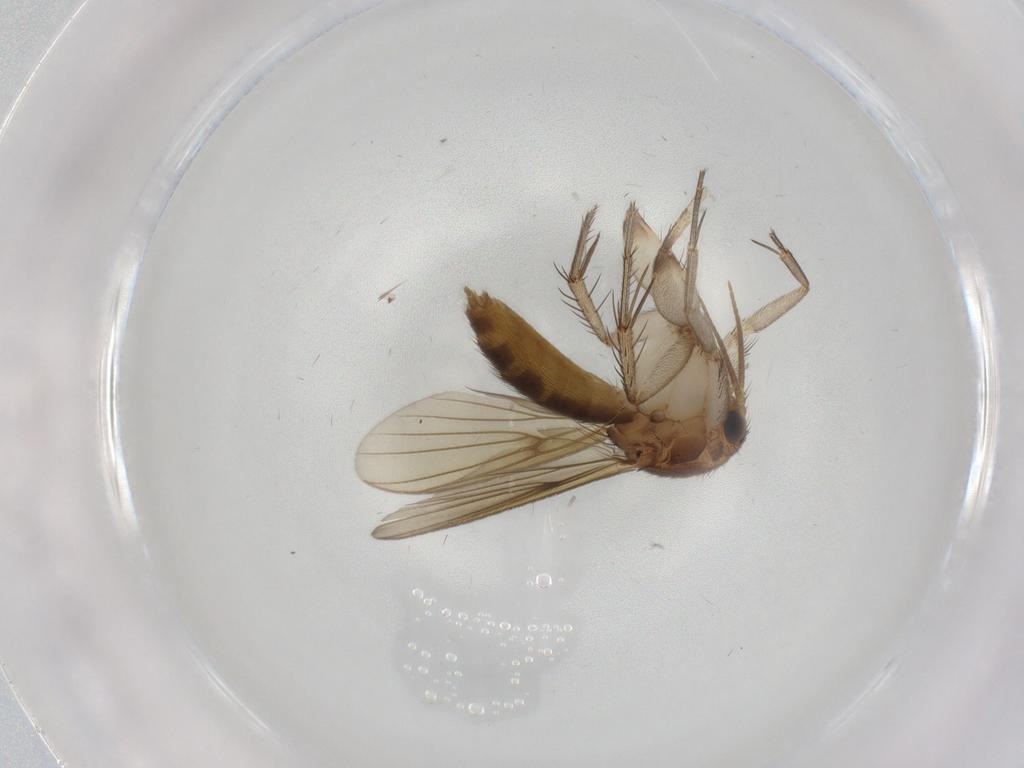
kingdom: Animalia
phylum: Arthropoda
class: Insecta
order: Diptera
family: Mycetophilidae
